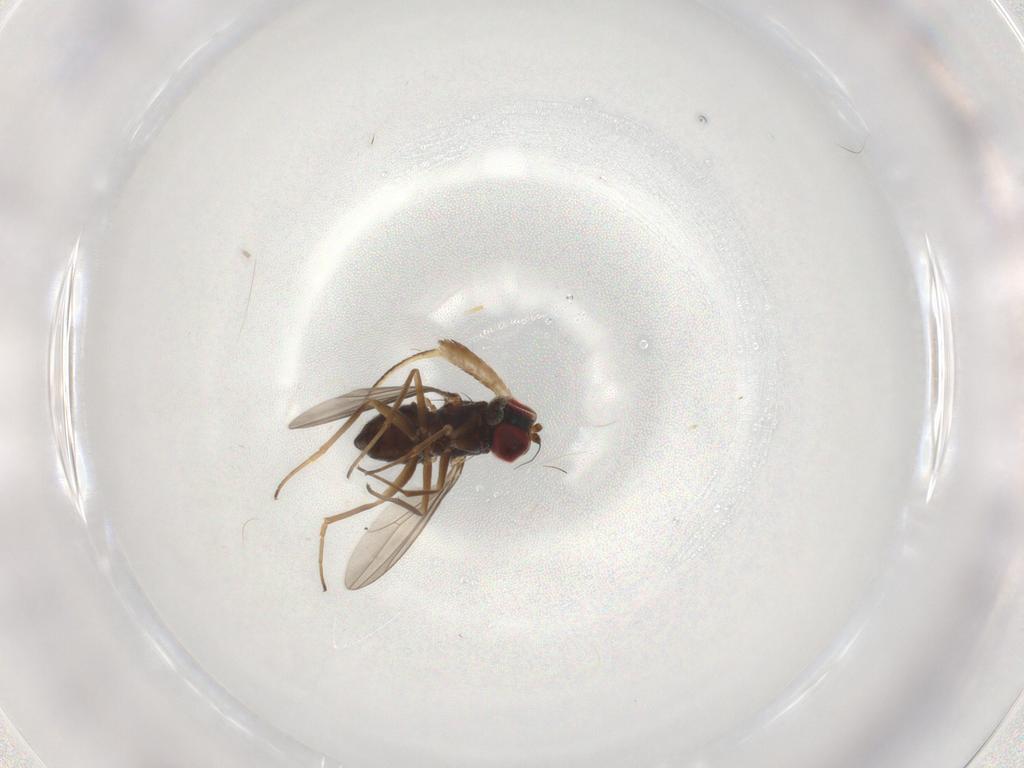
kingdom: Animalia
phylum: Arthropoda
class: Insecta
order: Diptera
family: Dolichopodidae
